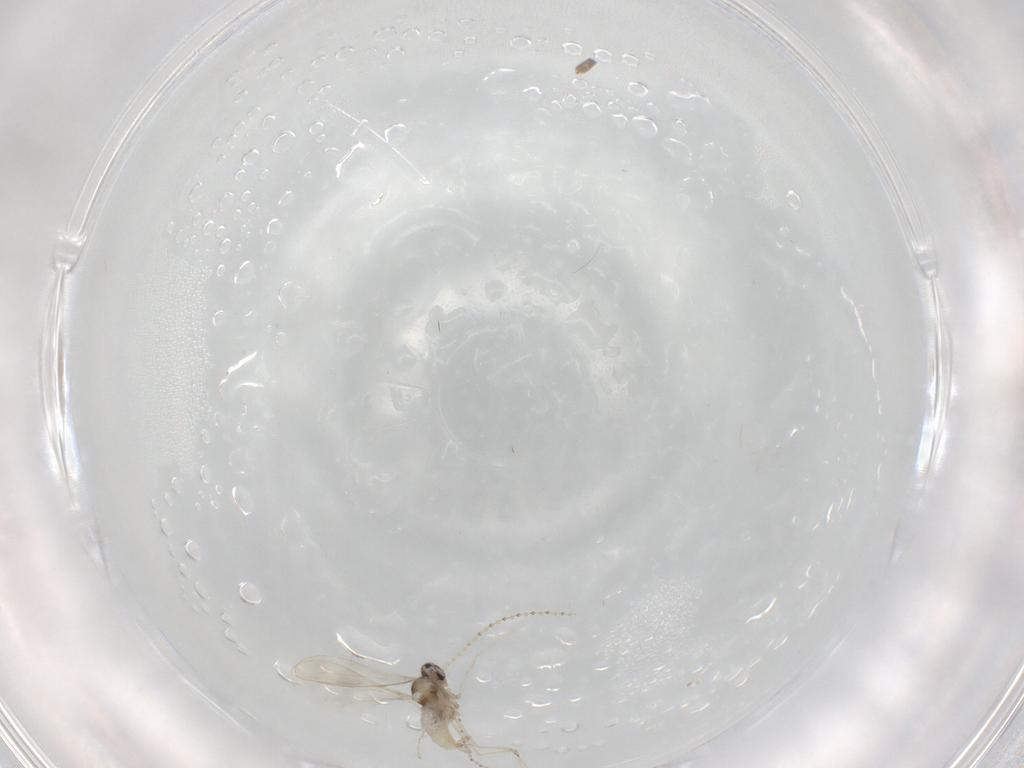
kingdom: Animalia
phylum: Arthropoda
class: Insecta
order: Diptera
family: Cecidomyiidae
